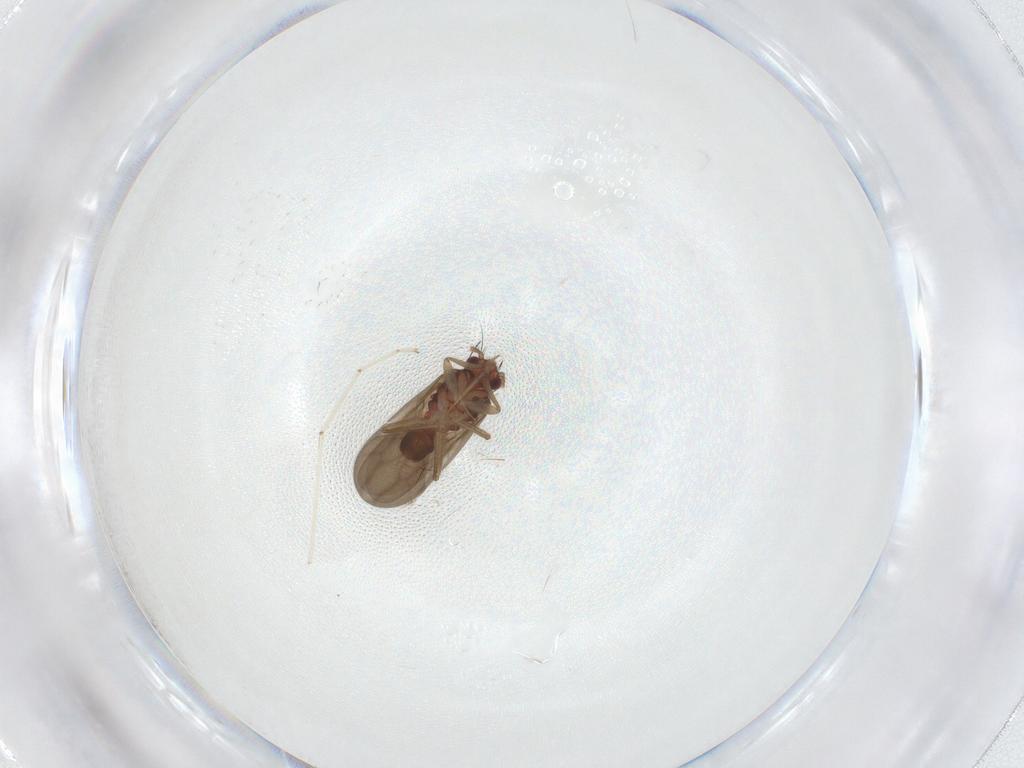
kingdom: Animalia
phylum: Arthropoda
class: Insecta
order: Hemiptera
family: Ceratocombidae
